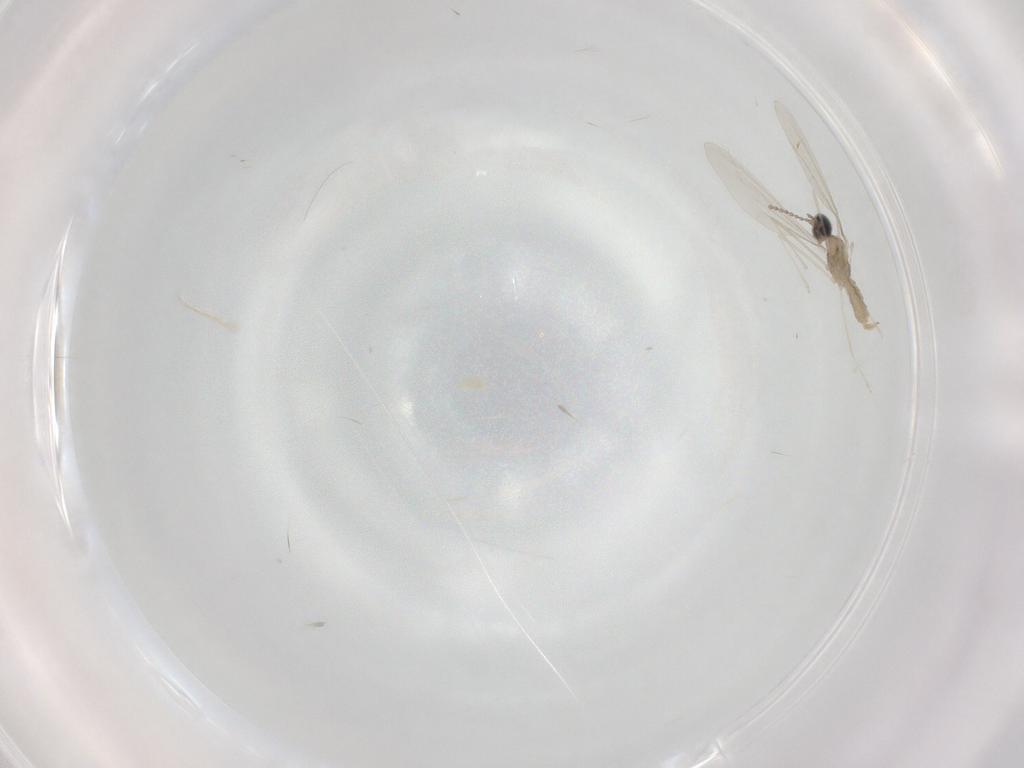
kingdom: Animalia
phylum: Arthropoda
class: Insecta
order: Diptera
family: Cecidomyiidae
